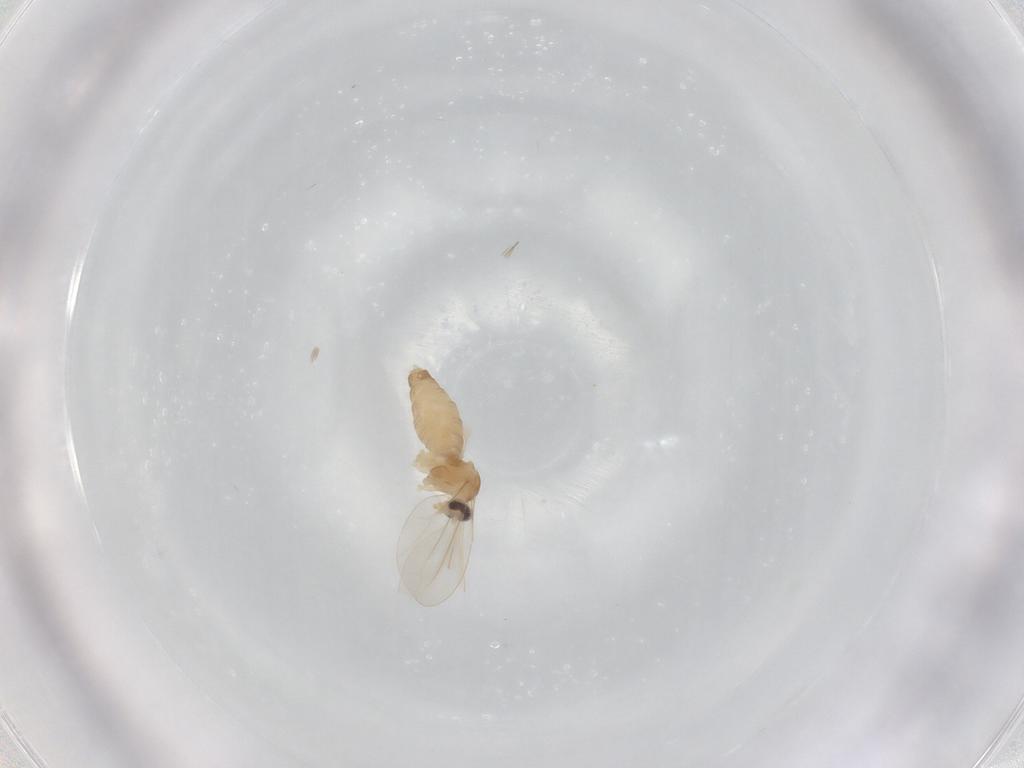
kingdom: Animalia
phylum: Arthropoda
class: Insecta
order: Diptera
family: Cecidomyiidae
